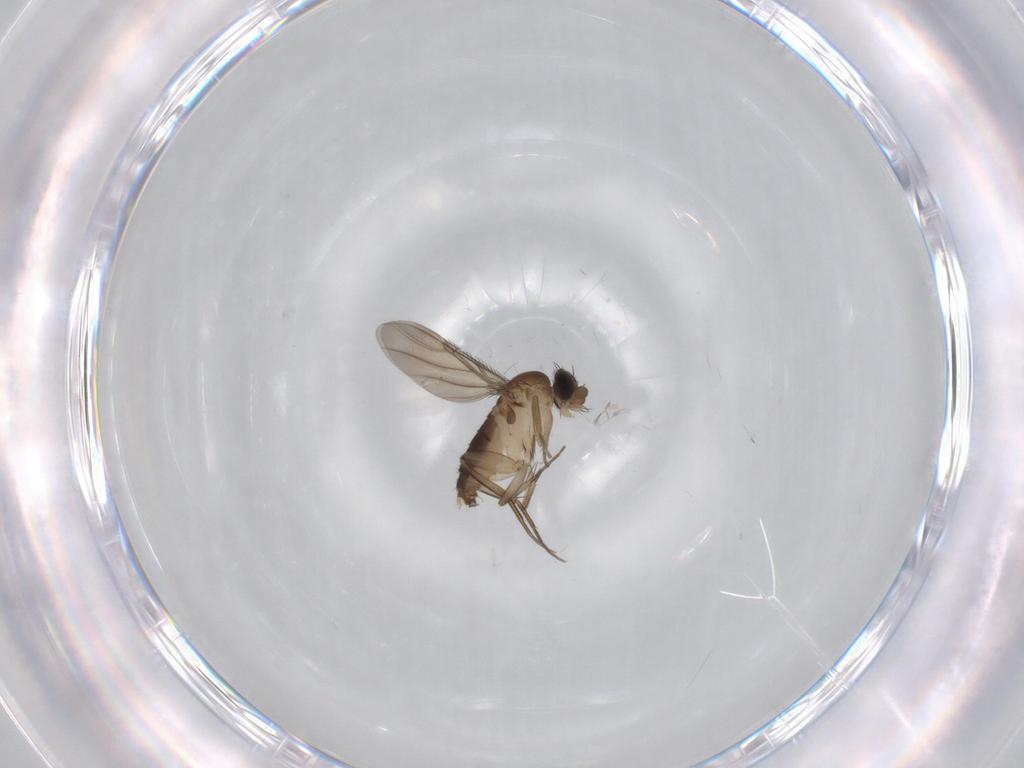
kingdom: Animalia
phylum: Arthropoda
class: Insecta
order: Diptera
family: Phoridae
